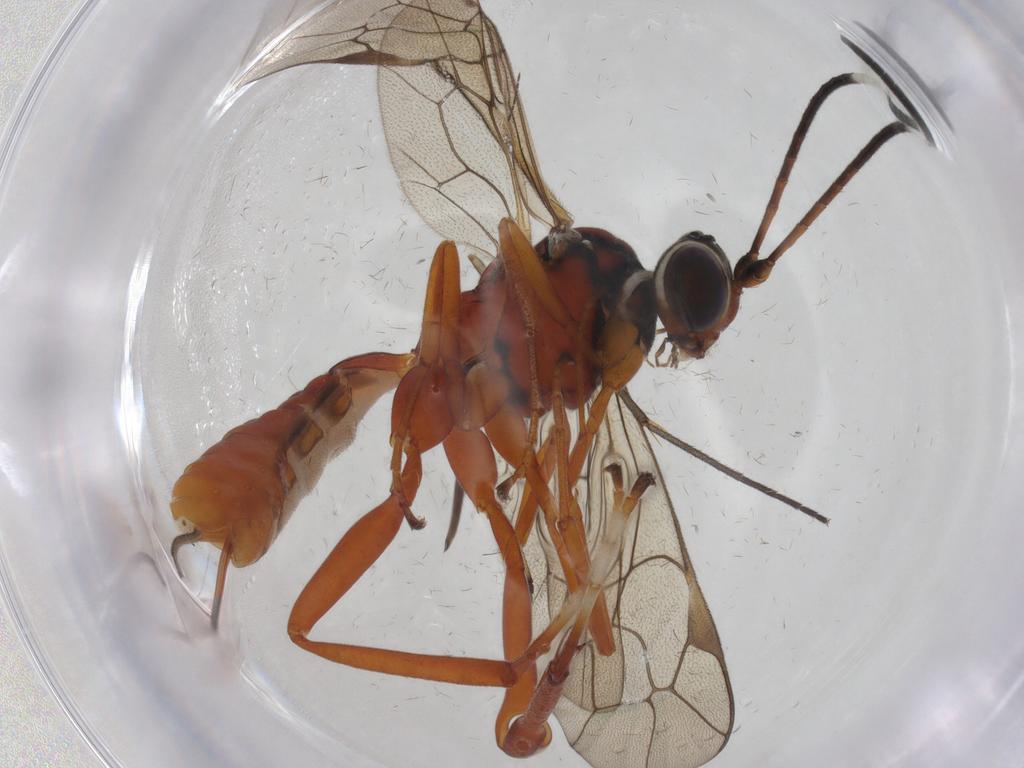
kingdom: Animalia
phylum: Arthropoda
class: Insecta
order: Hymenoptera
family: Ichneumonidae
